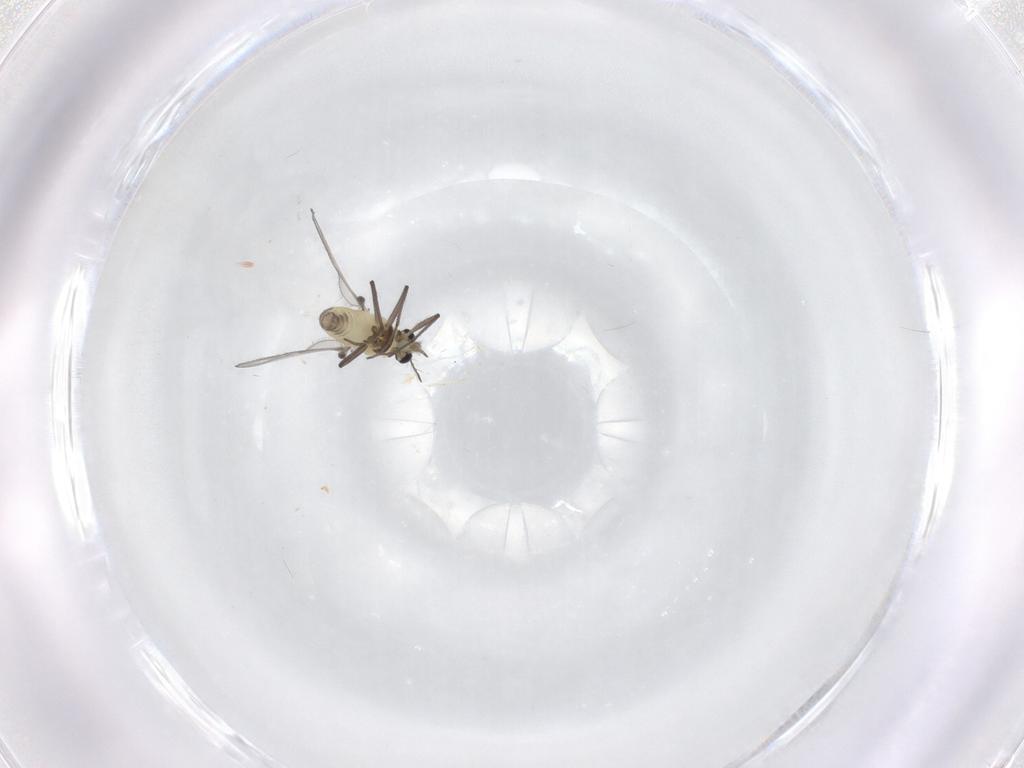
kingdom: Animalia
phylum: Arthropoda
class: Insecta
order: Diptera
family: Chironomidae
